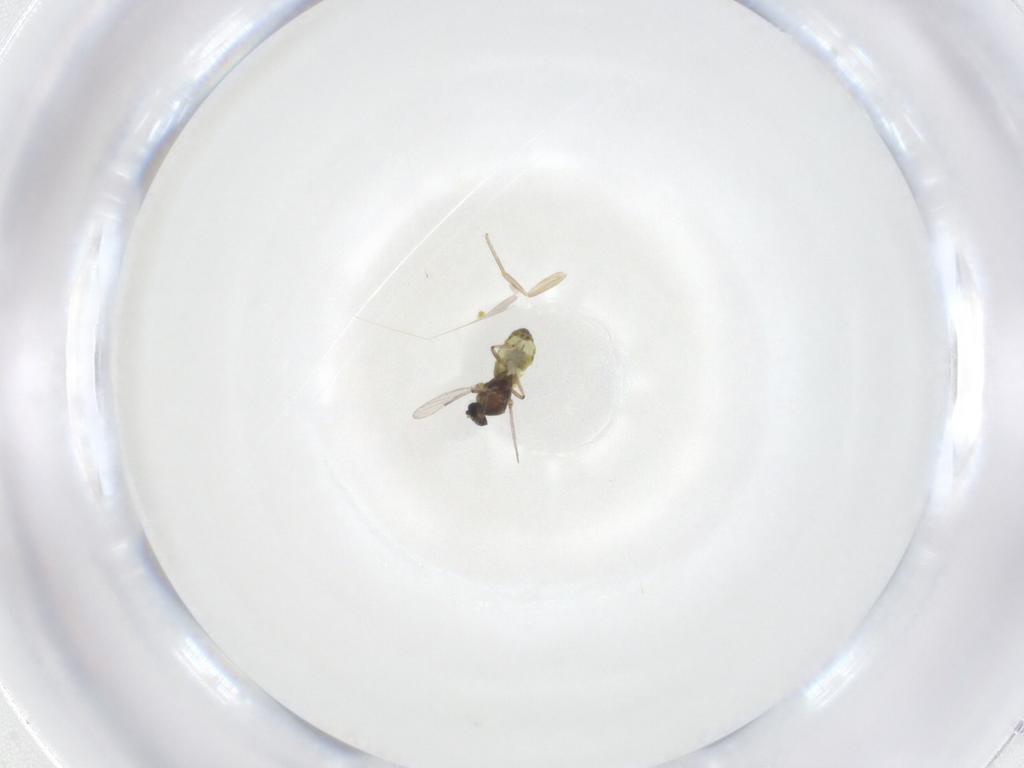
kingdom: Animalia
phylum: Arthropoda
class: Insecta
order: Diptera
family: Ceratopogonidae
